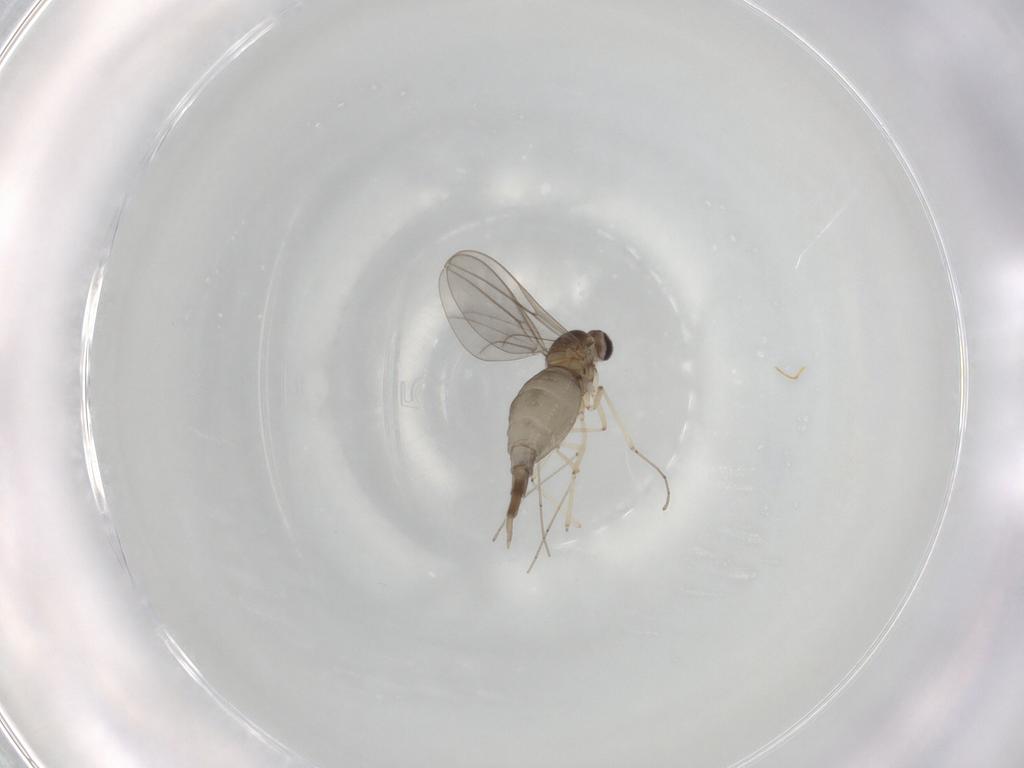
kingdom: Animalia
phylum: Arthropoda
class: Insecta
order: Diptera
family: Cecidomyiidae
